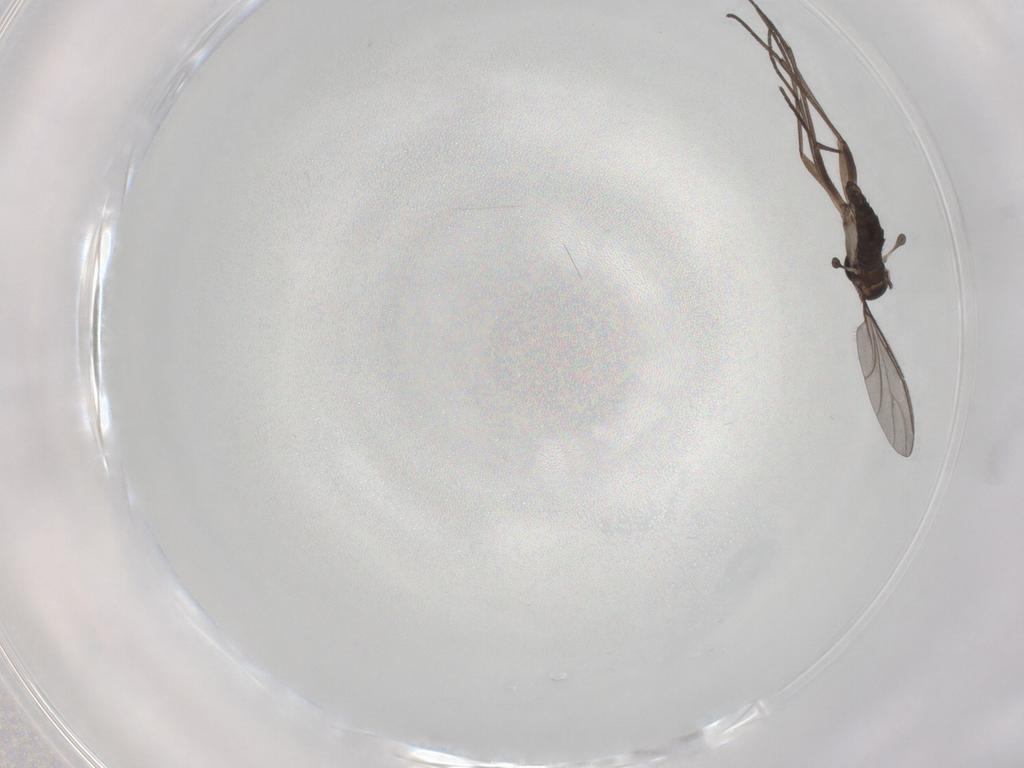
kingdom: Animalia
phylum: Arthropoda
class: Insecta
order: Diptera
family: Sciaridae
